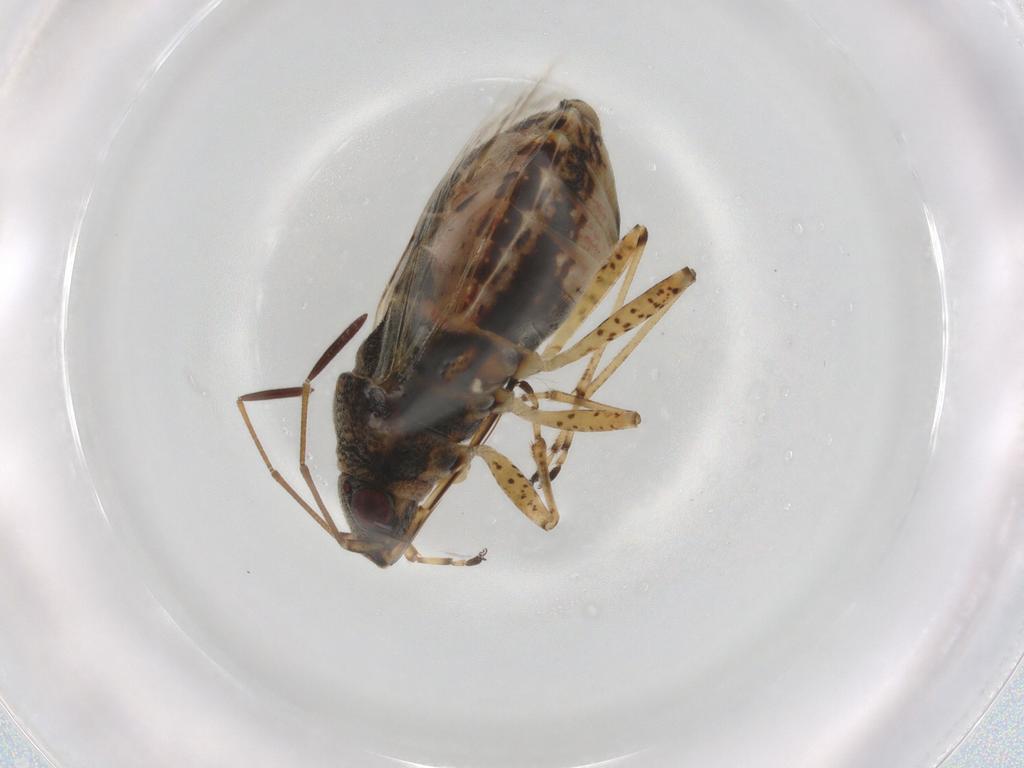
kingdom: Animalia
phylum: Arthropoda
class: Insecta
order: Hemiptera
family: Lygaeidae
